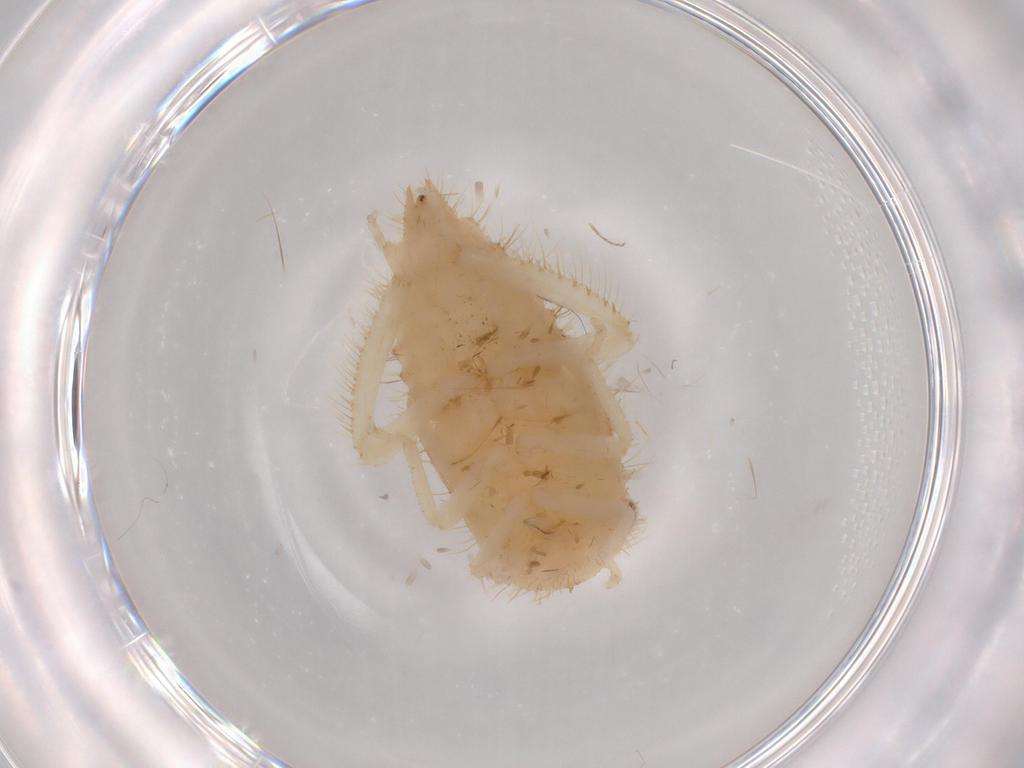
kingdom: Animalia
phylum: Arthropoda
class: Insecta
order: Hemiptera
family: Cicadellidae
